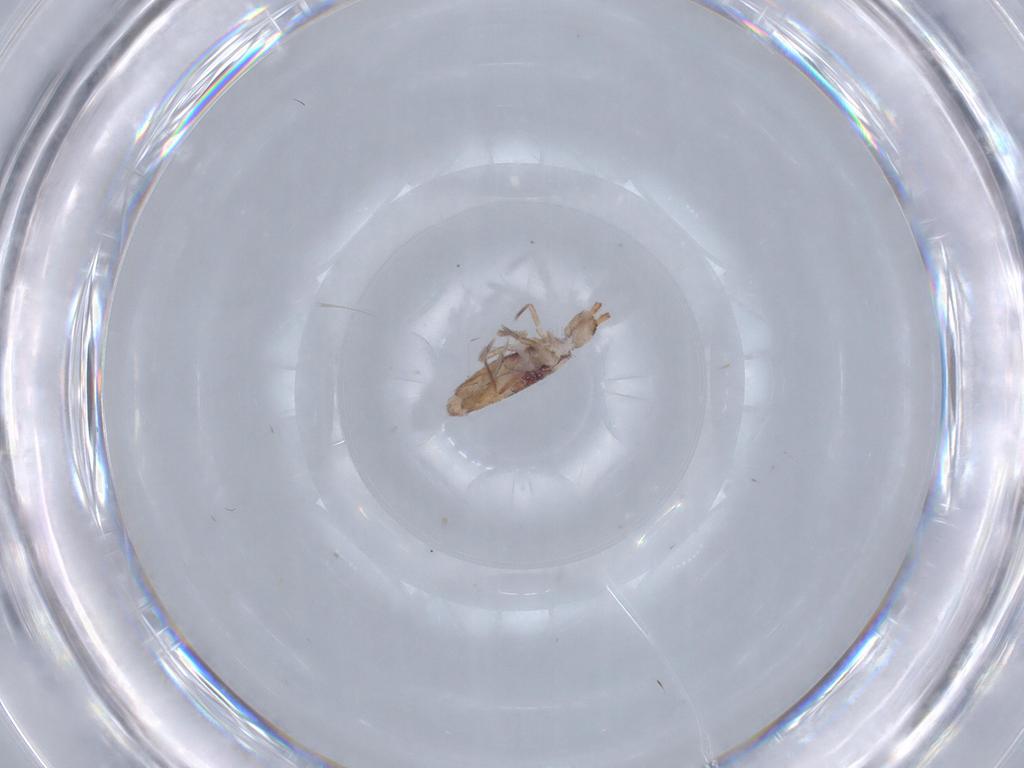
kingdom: Animalia
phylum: Arthropoda
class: Collembola
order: Entomobryomorpha
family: Entomobryidae
